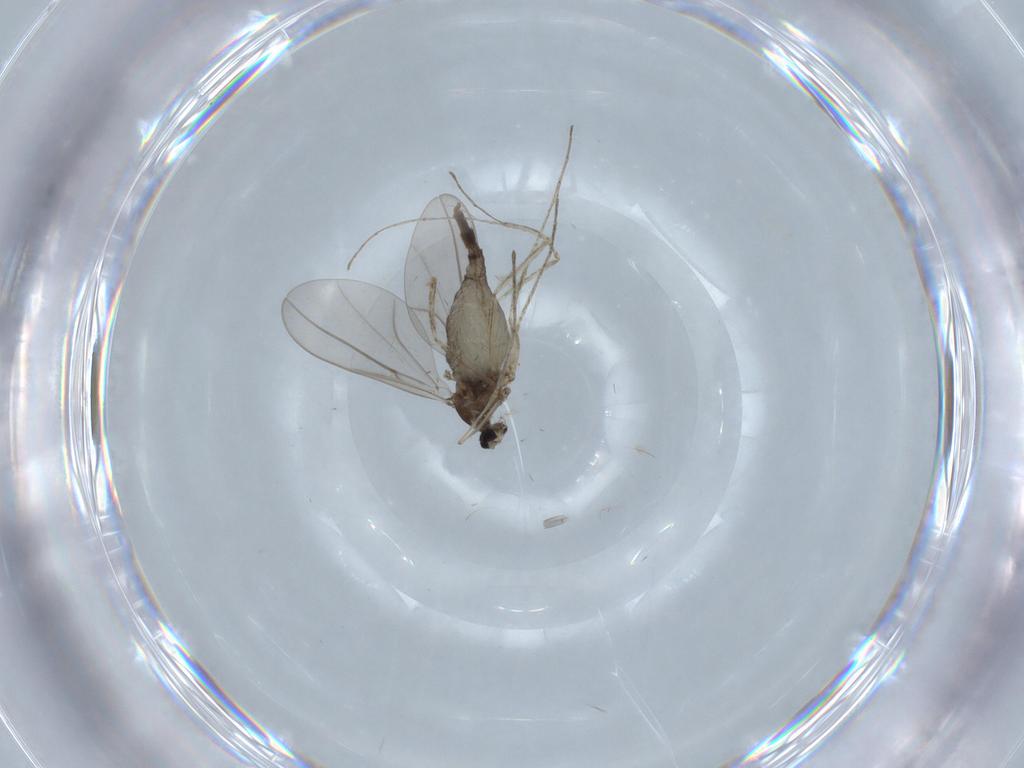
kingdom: Animalia
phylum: Arthropoda
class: Insecta
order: Diptera
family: Cecidomyiidae
